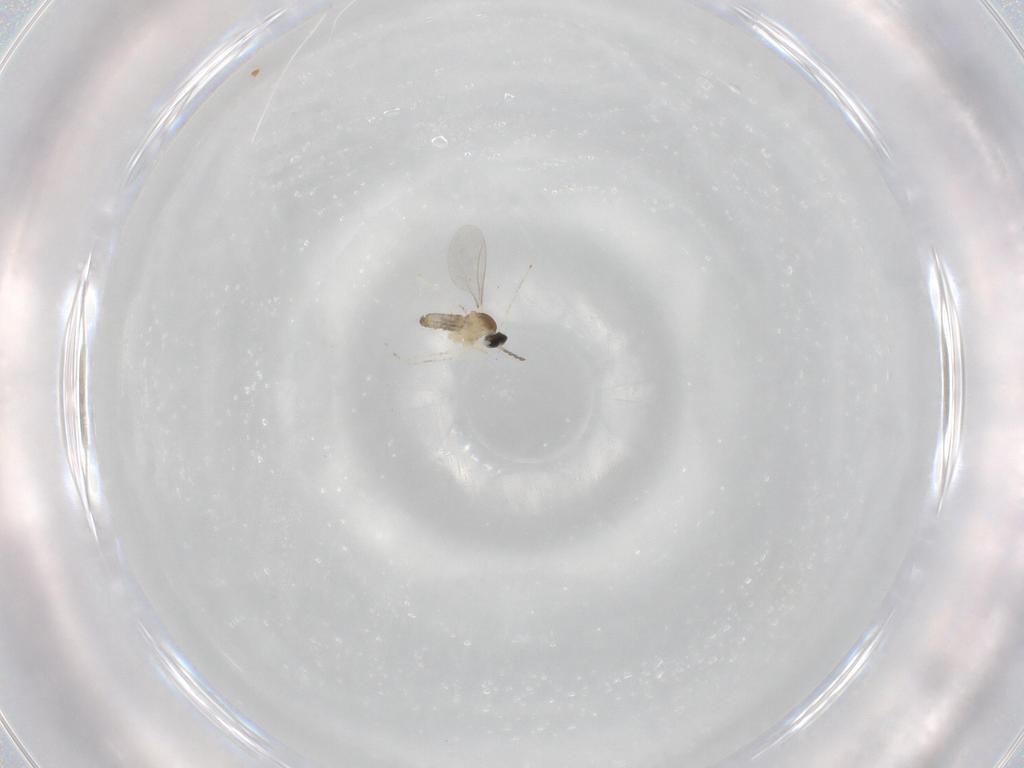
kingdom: Animalia
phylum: Arthropoda
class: Insecta
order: Diptera
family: Cecidomyiidae
